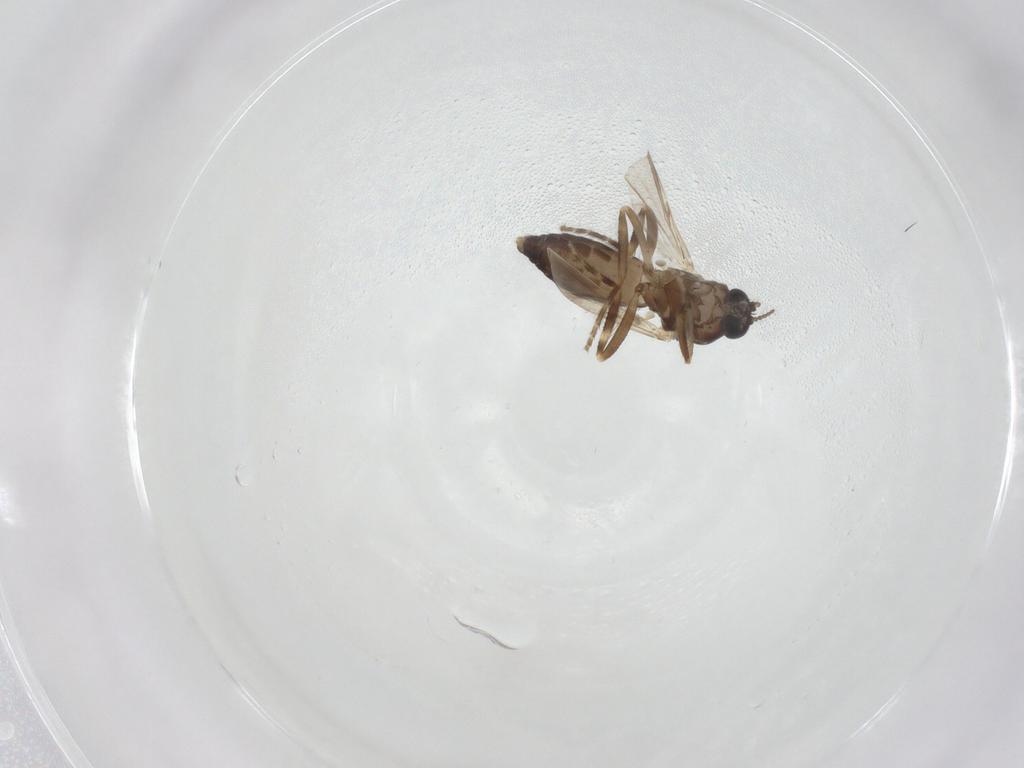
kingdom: Animalia
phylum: Arthropoda
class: Insecta
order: Diptera
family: Ceratopogonidae
